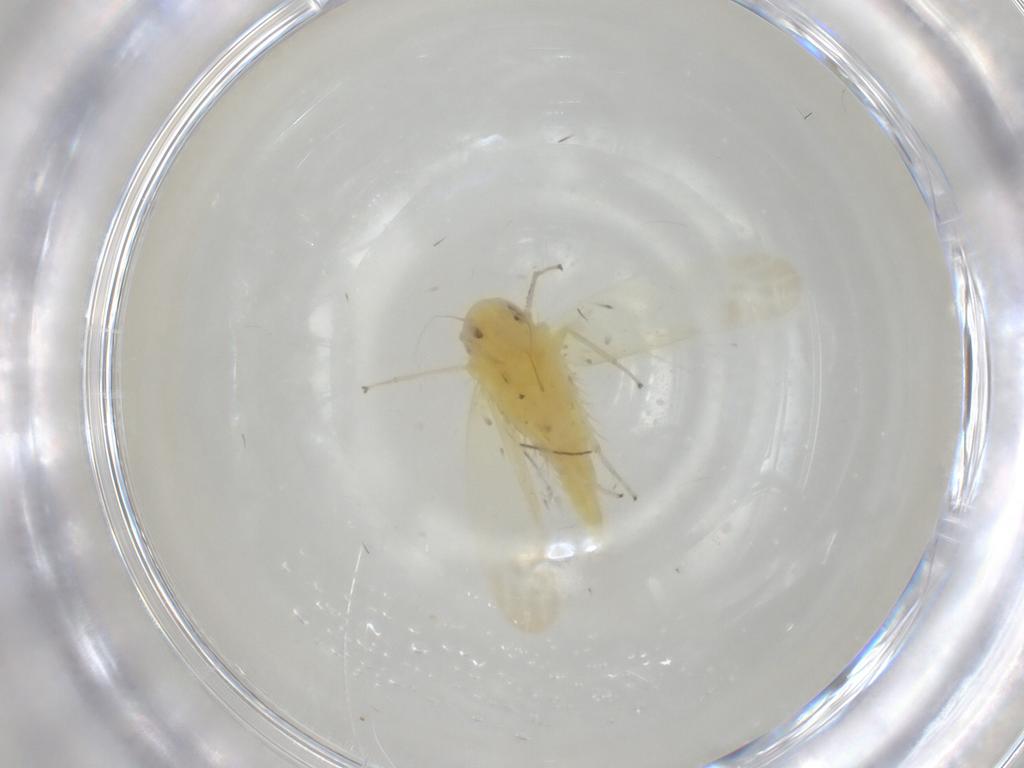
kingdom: Animalia
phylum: Arthropoda
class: Insecta
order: Hemiptera
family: Cicadellidae
